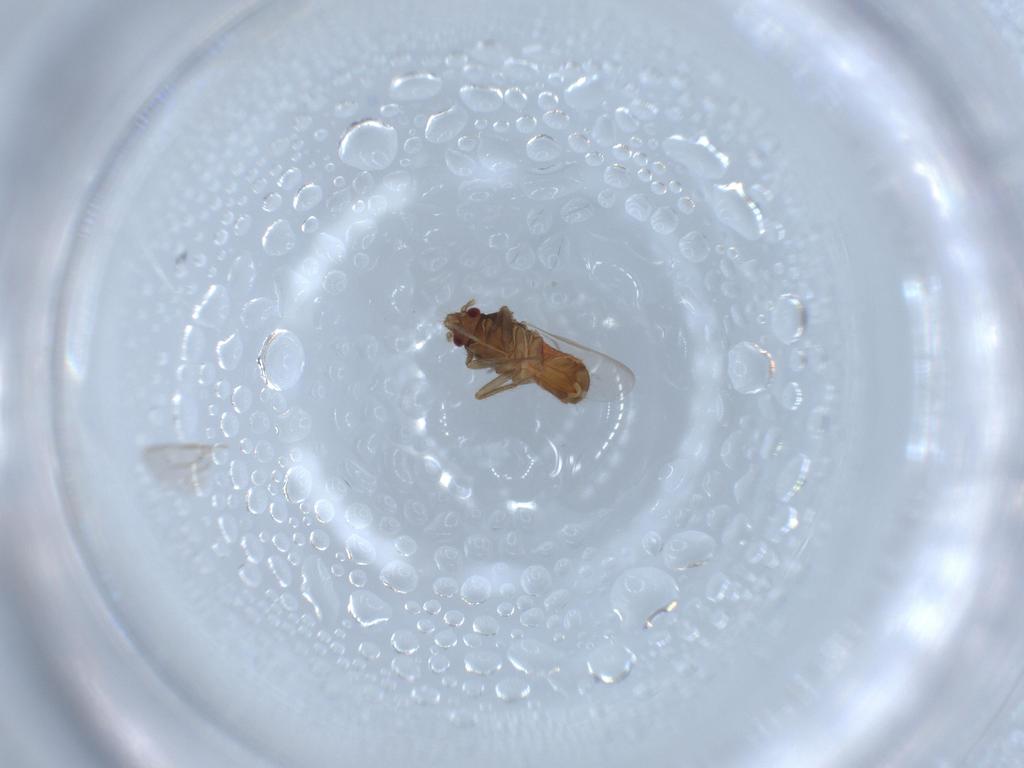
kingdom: Animalia
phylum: Arthropoda
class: Insecta
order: Hemiptera
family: Ceratocombidae
